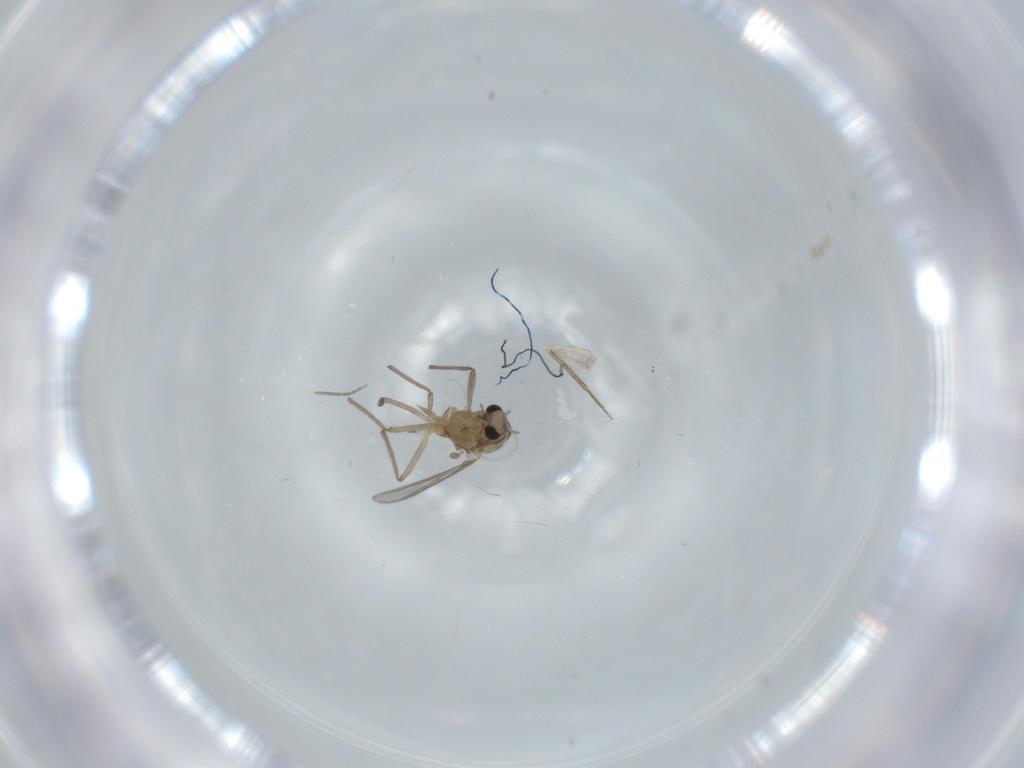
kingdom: Animalia
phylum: Arthropoda
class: Insecta
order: Diptera
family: Chironomidae
